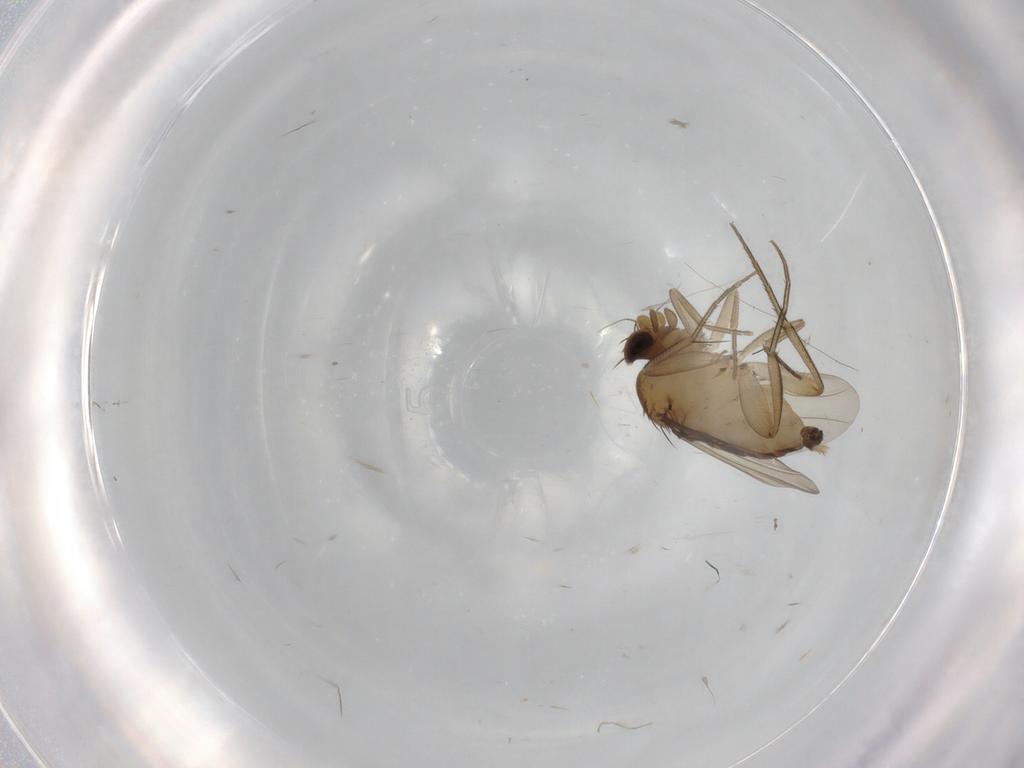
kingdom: Animalia
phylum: Arthropoda
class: Insecta
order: Diptera
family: Phoridae
